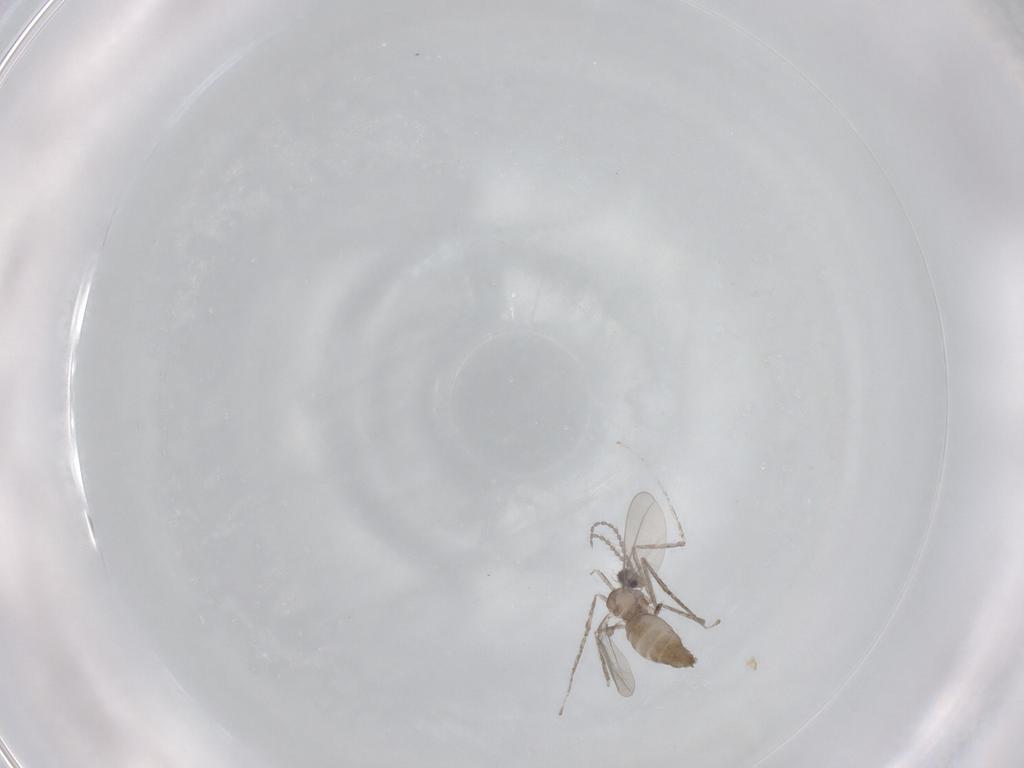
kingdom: Animalia
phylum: Arthropoda
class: Insecta
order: Diptera
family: Cecidomyiidae
